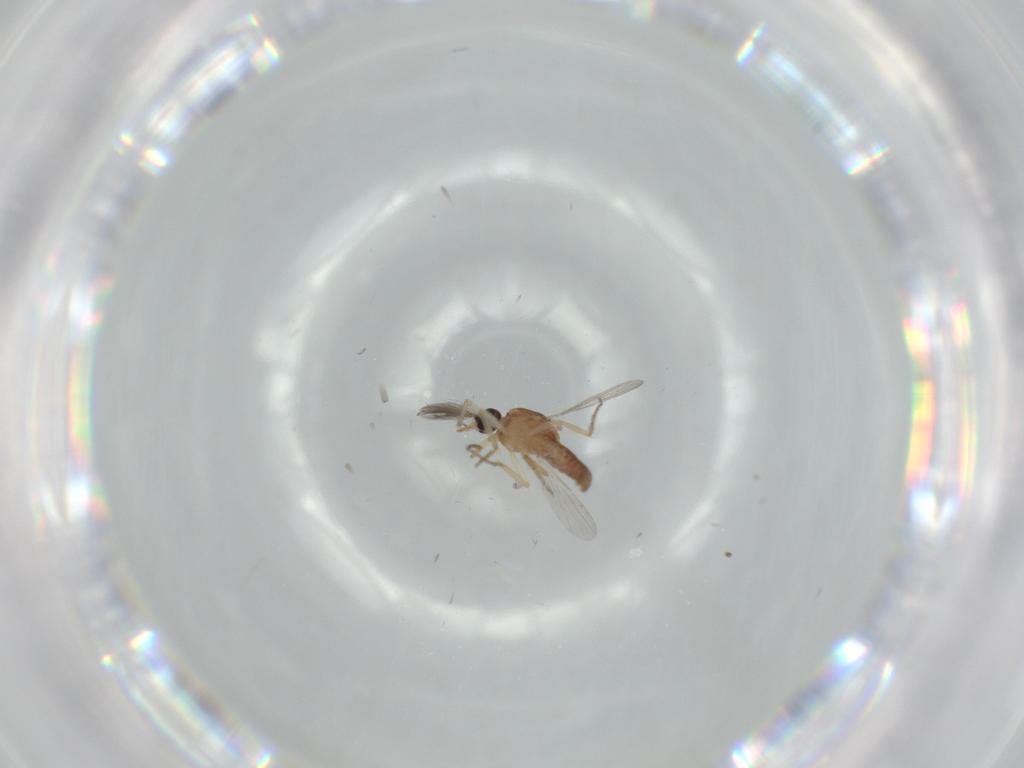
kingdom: Animalia
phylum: Arthropoda
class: Insecta
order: Diptera
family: Ceratopogonidae
